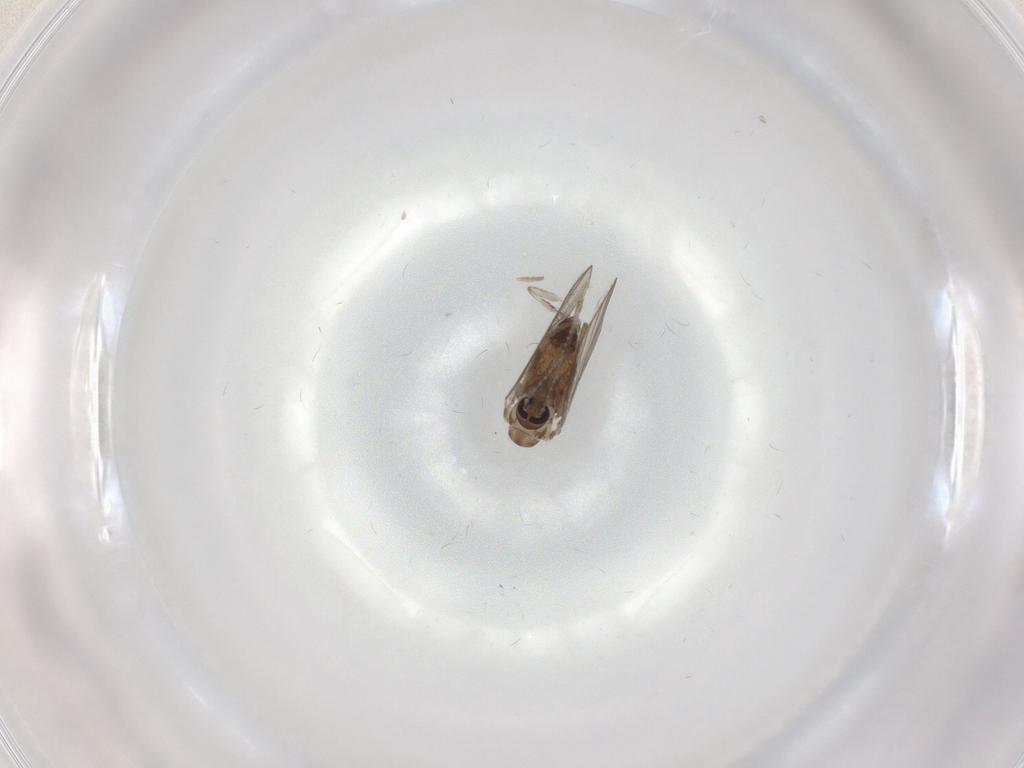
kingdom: Animalia
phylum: Arthropoda
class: Insecta
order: Diptera
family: Psychodidae
